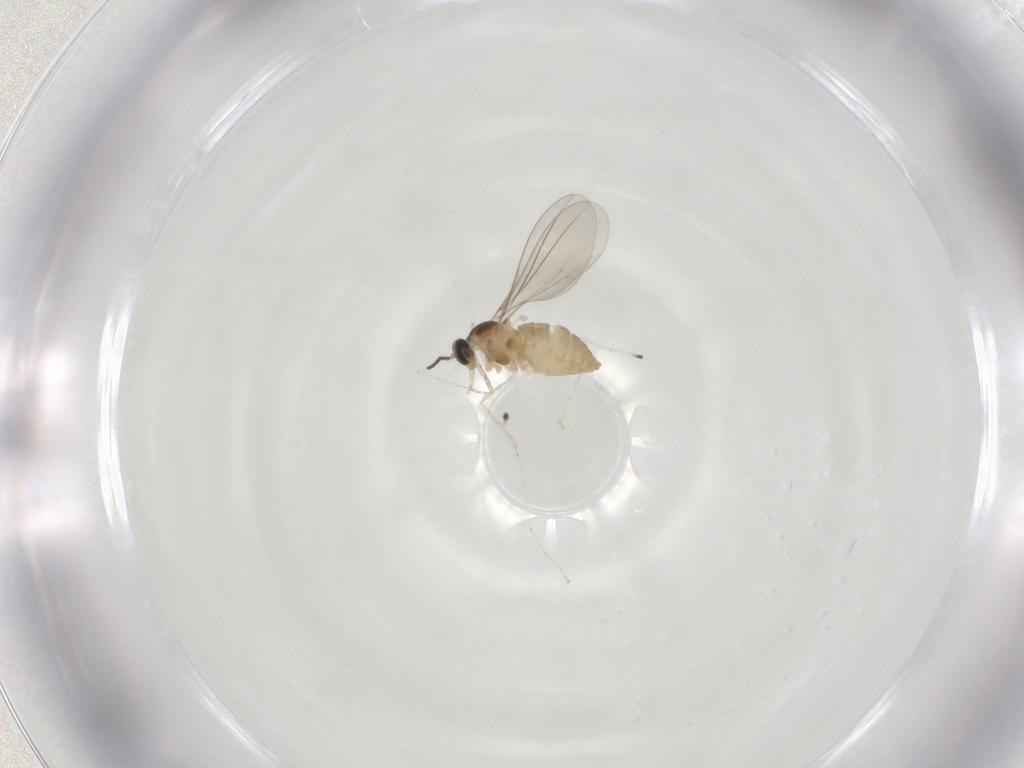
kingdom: Animalia
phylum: Arthropoda
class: Insecta
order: Diptera
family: Cecidomyiidae
